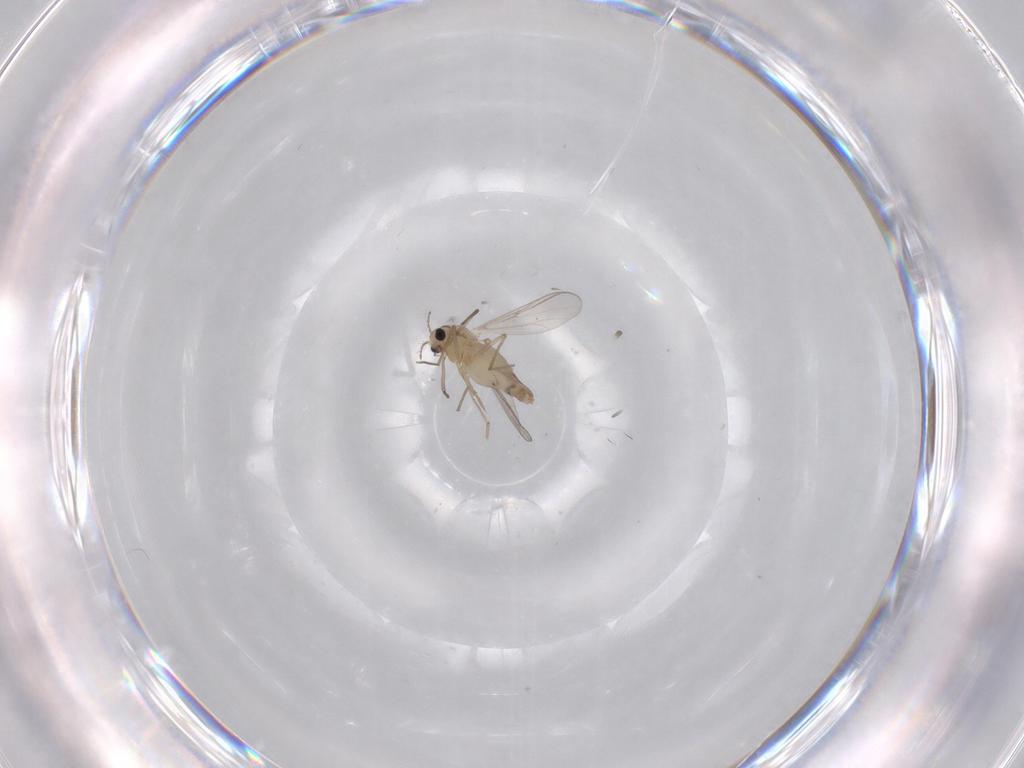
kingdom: Animalia
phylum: Arthropoda
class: Insecta
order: Diptera
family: Chironomidae
